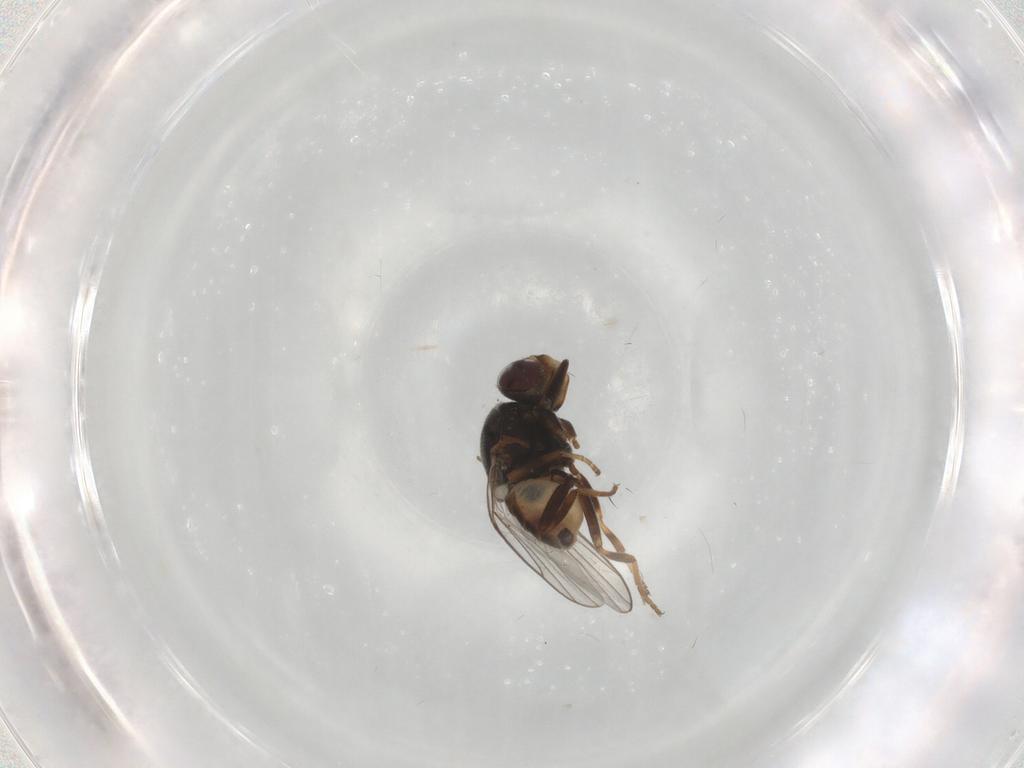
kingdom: Animalia
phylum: Arthropoda
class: Insecta
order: Diptera
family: Chloropidae
